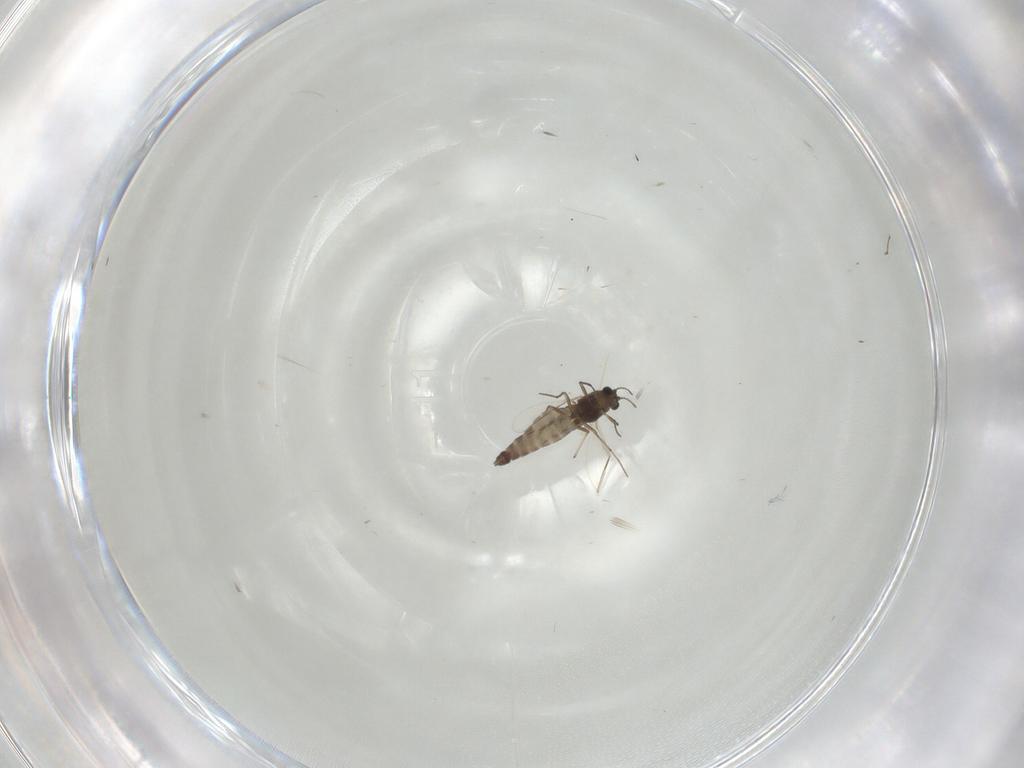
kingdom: Animalia
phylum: Arthropoda
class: Insecta
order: Diptera
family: Chironomidae
